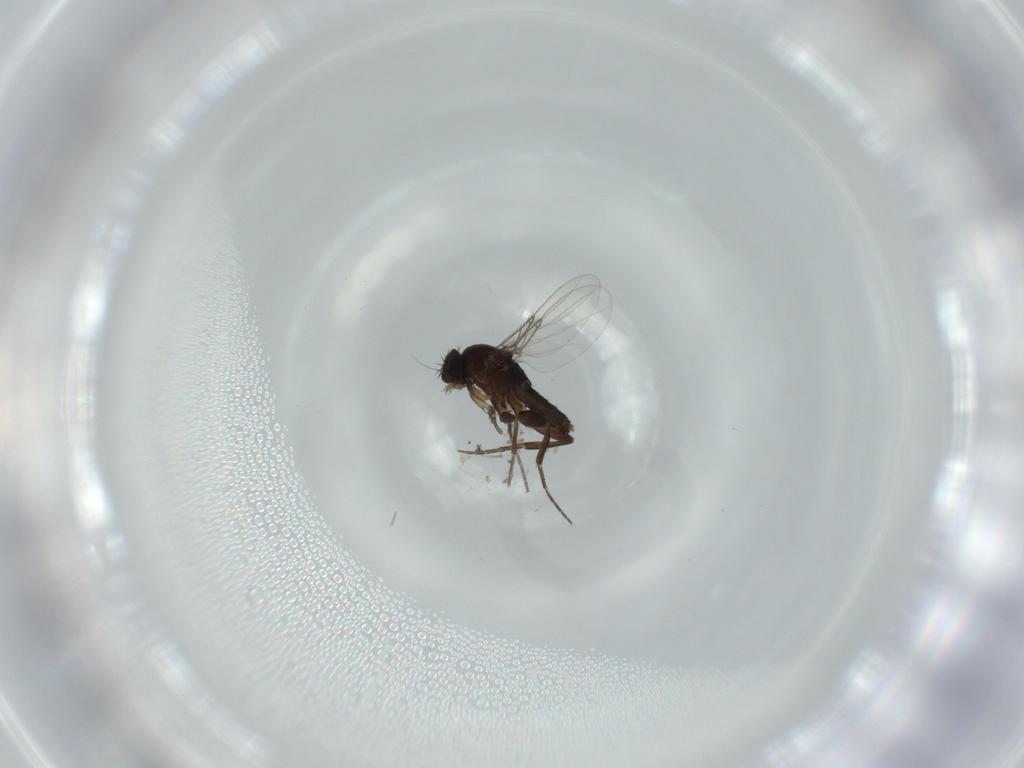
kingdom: Animalia
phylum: Arthropoda
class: Insecta
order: Diptera
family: Phoridae
